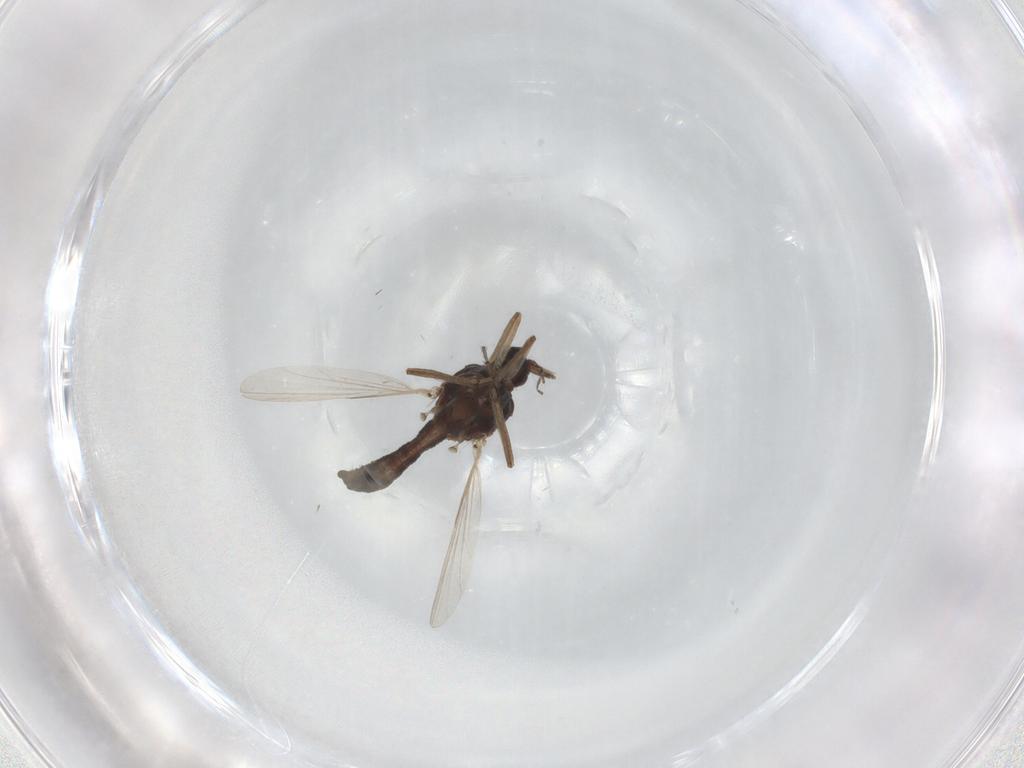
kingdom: Animalia
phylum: Arthropoda
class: Insecta
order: Diptera
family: Ceratopogonidae
